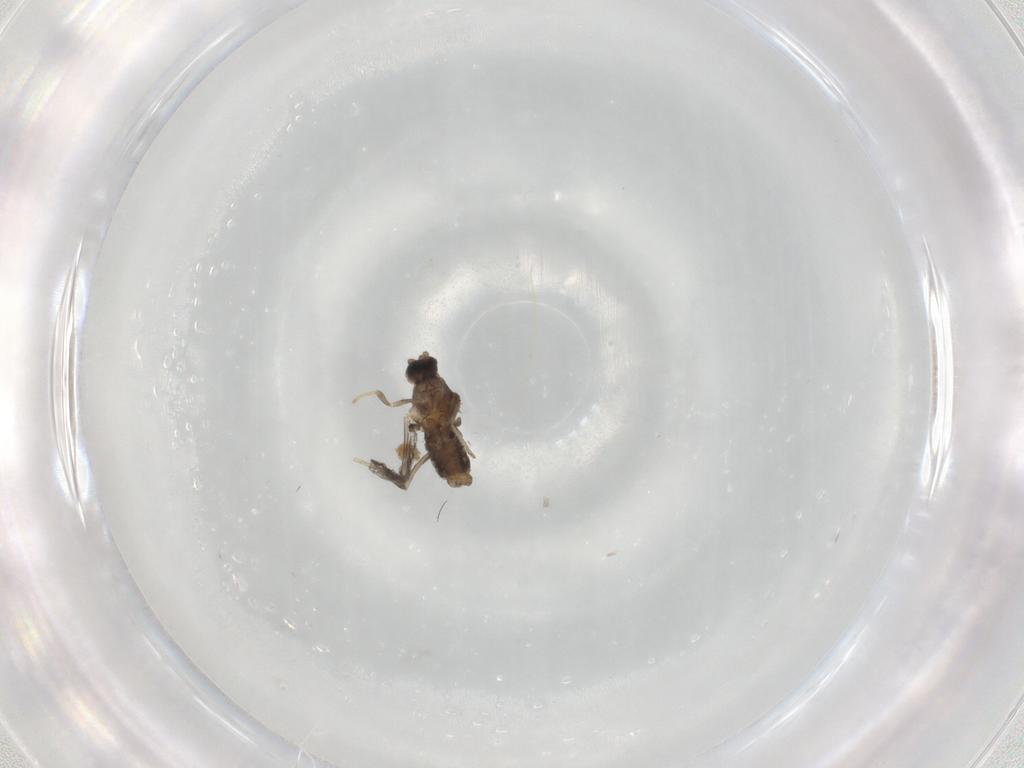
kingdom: Animalia
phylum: Arthropoda
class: Insecta
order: Diptera
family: Cecidomyiidae
